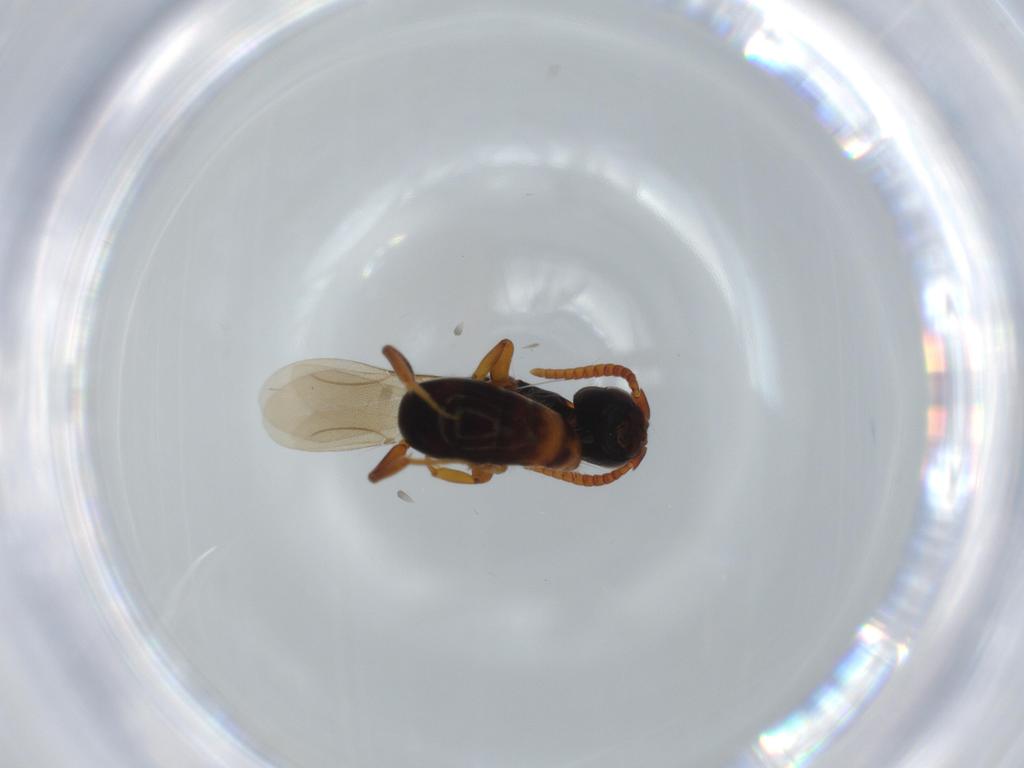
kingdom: Animalia
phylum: Arthropoda
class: Insecta
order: Hymenoptera
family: Bethylidae
